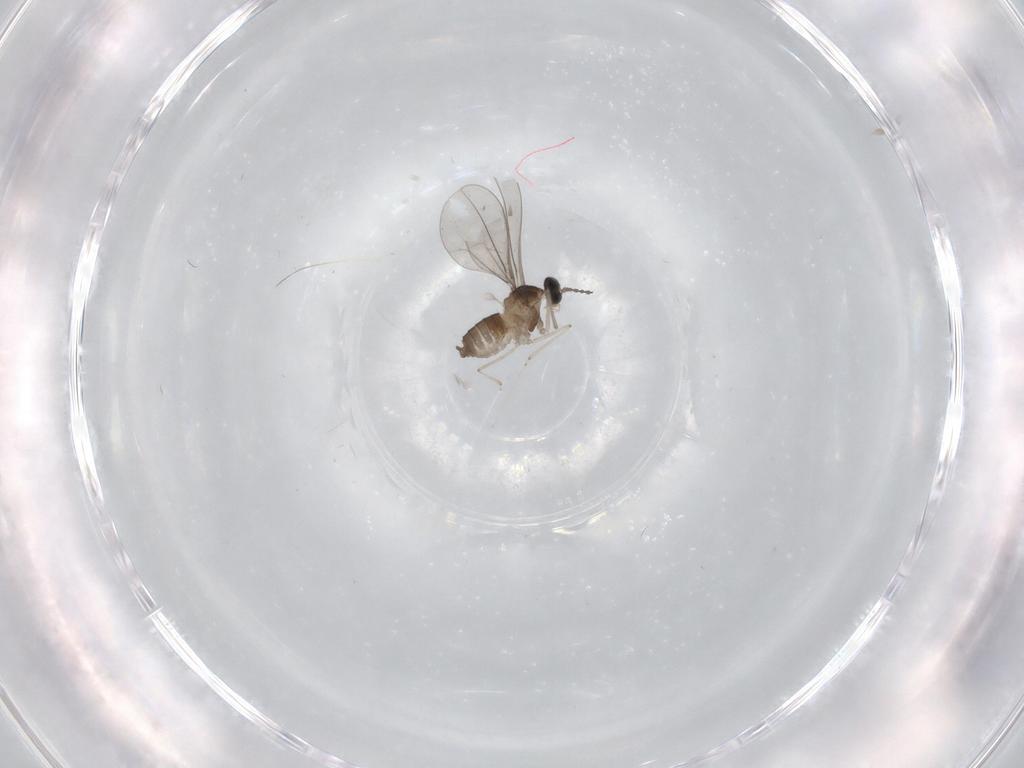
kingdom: Animalia
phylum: Arthropoda
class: Insecta
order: Diptera
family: Cecidomyiidae
